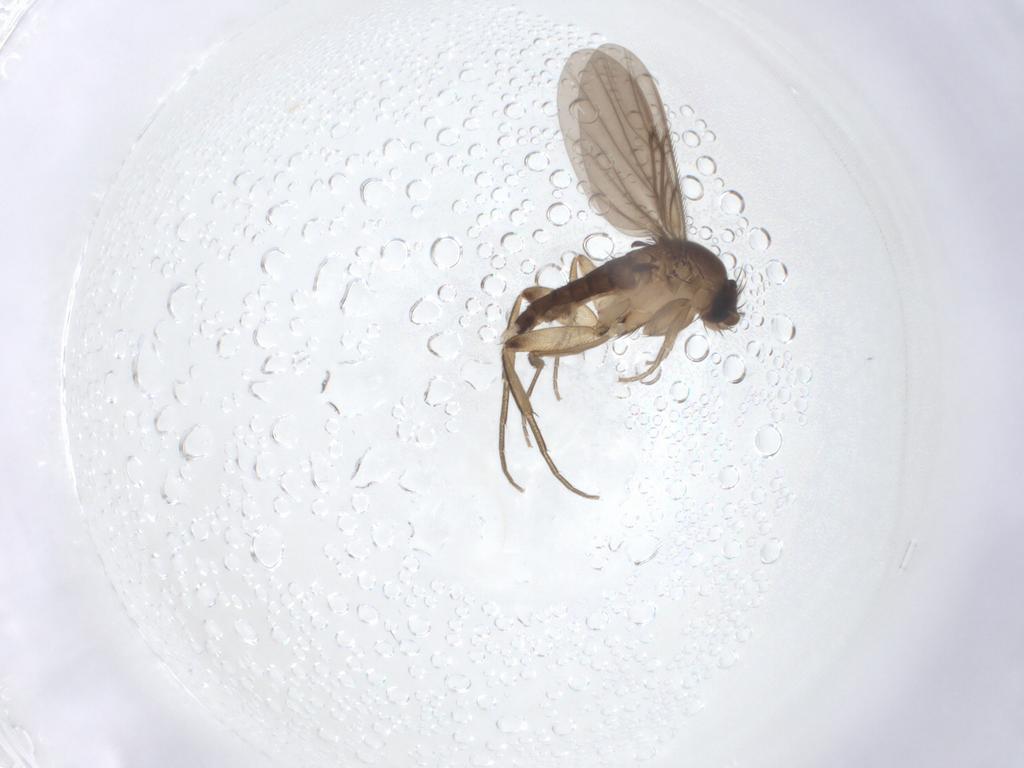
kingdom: Animalia
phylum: Arthropoda
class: Insecta
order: Diptera
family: Phoridae
